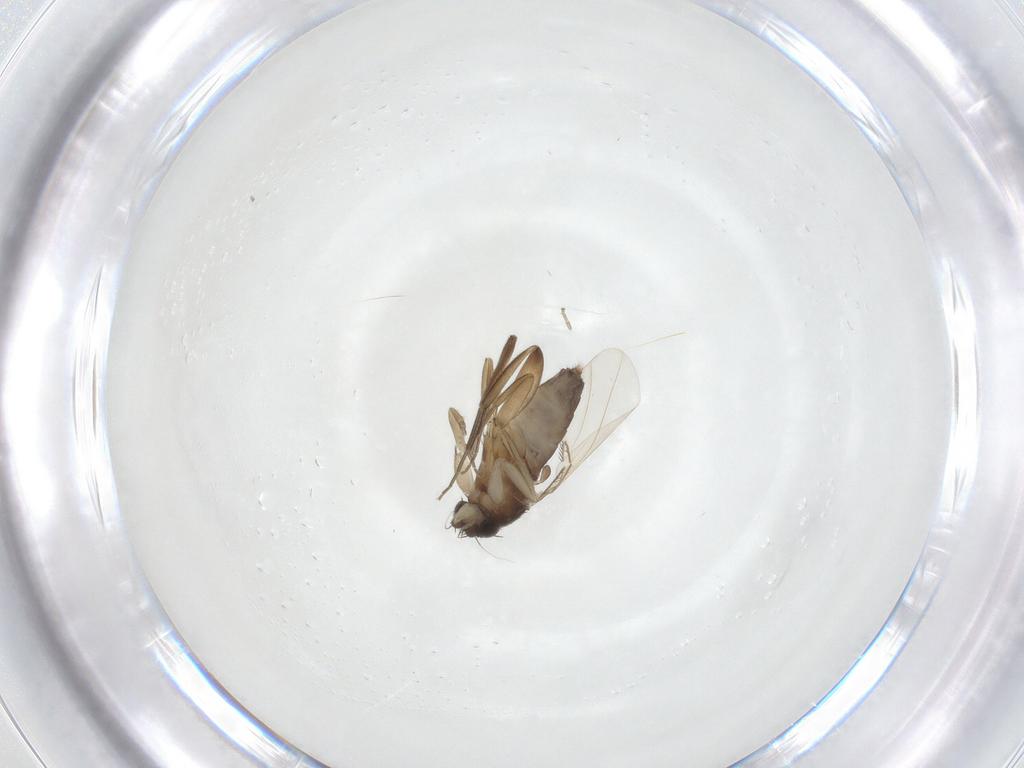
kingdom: Animalia
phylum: Arthropoda
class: Insecta
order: Diptera
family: Phoridae
